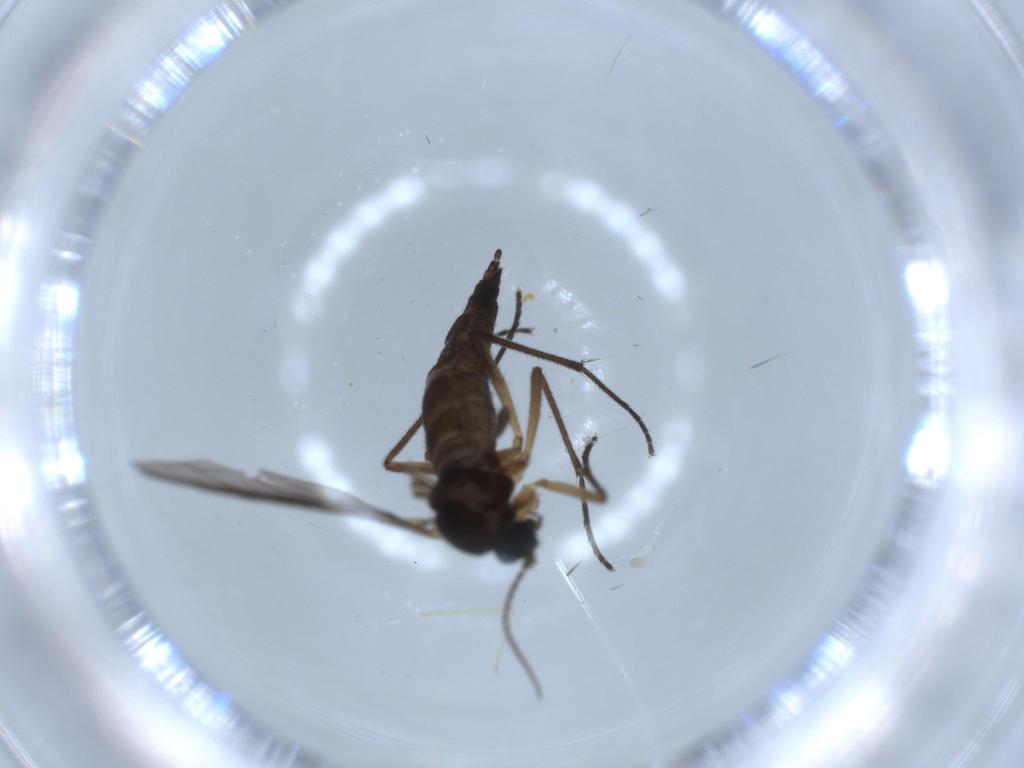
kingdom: Animalia
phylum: Arthropoda
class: Insecta
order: Diptera
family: Sciaridae
